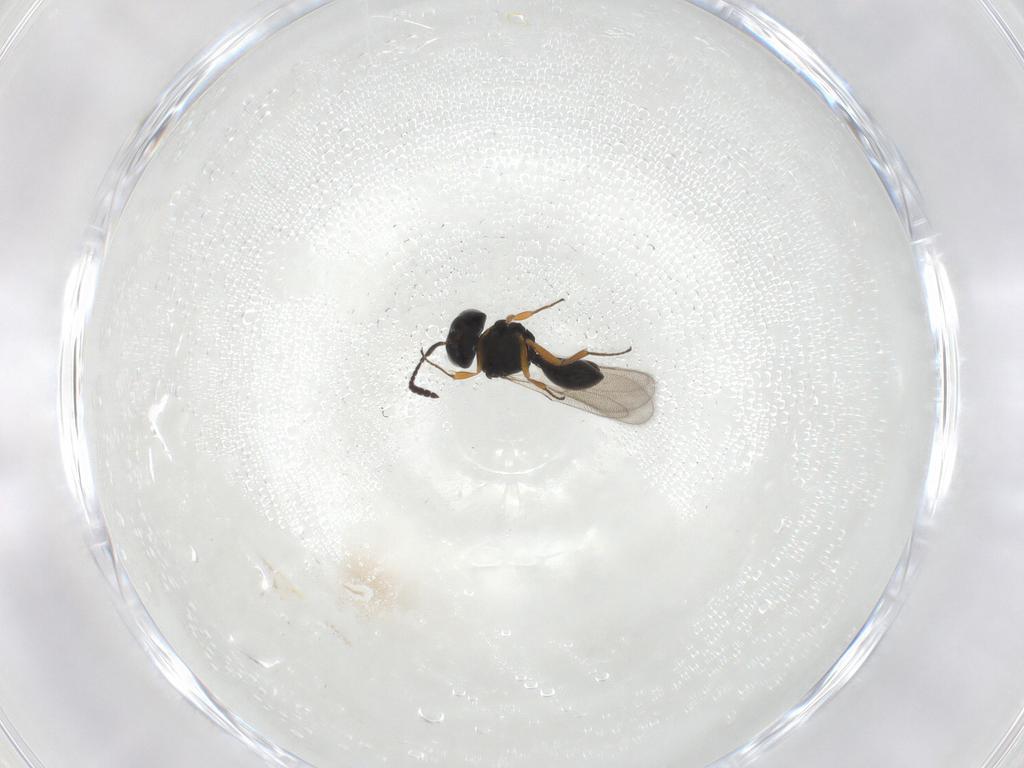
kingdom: Animalia
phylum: Arthropoda
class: Insecta
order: Hymenoptera
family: Scelionidae
